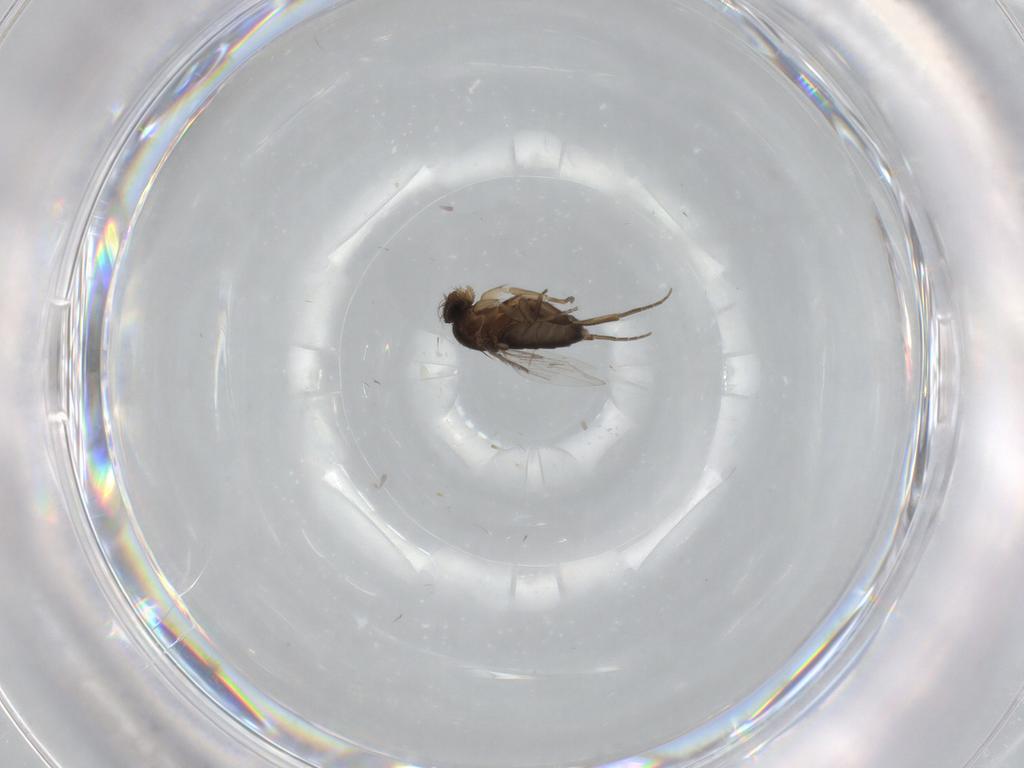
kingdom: Animalia
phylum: Arthropoda
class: Insecta
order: Diptera
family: Phoridae
